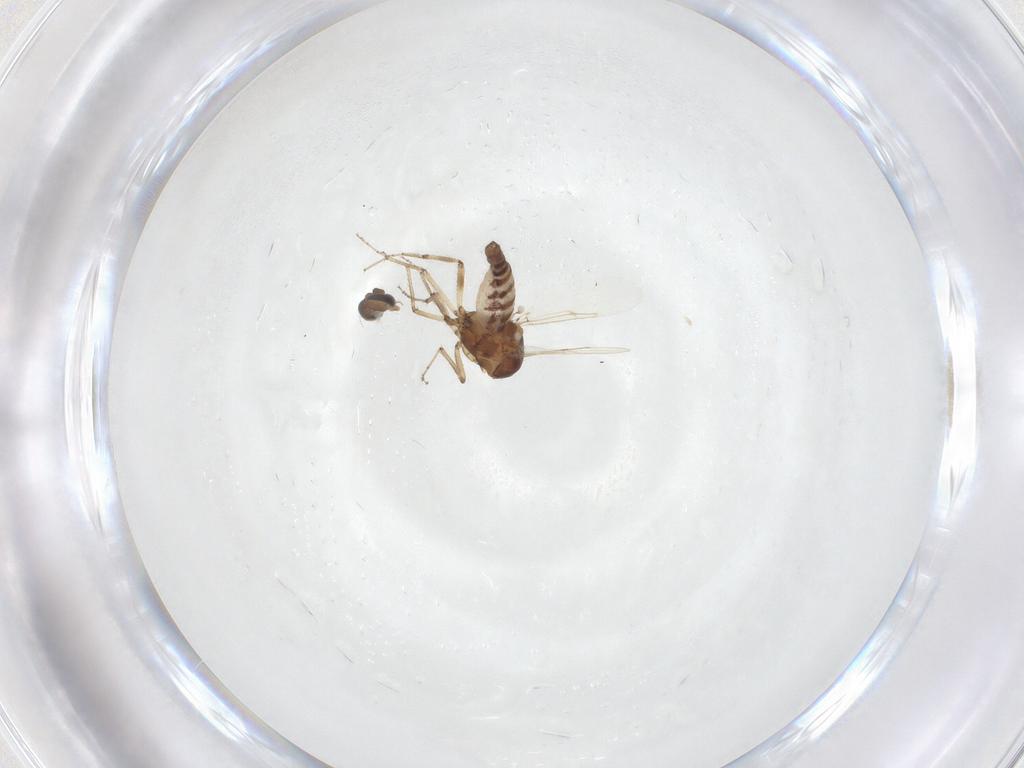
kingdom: Animalia
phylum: Arthropoda
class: Insecta
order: Diptera
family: Ceratopogonidae
